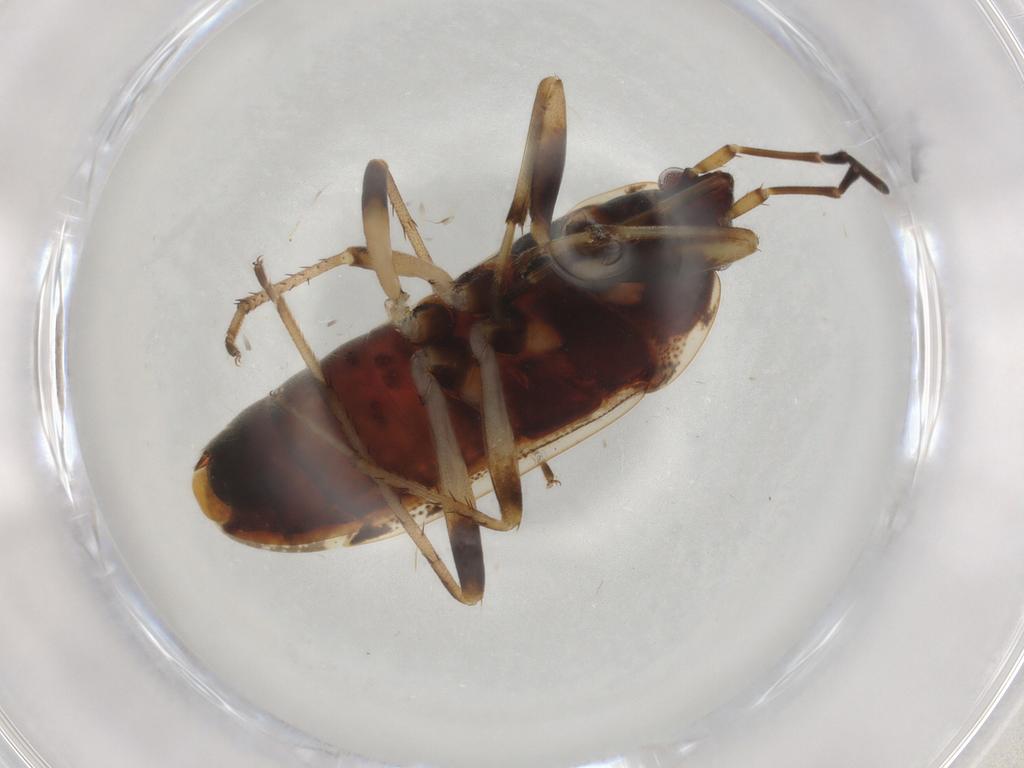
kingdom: Animalia
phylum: Arthropoda
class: Insecta
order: Hemiptera
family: Rhyparochromidae
